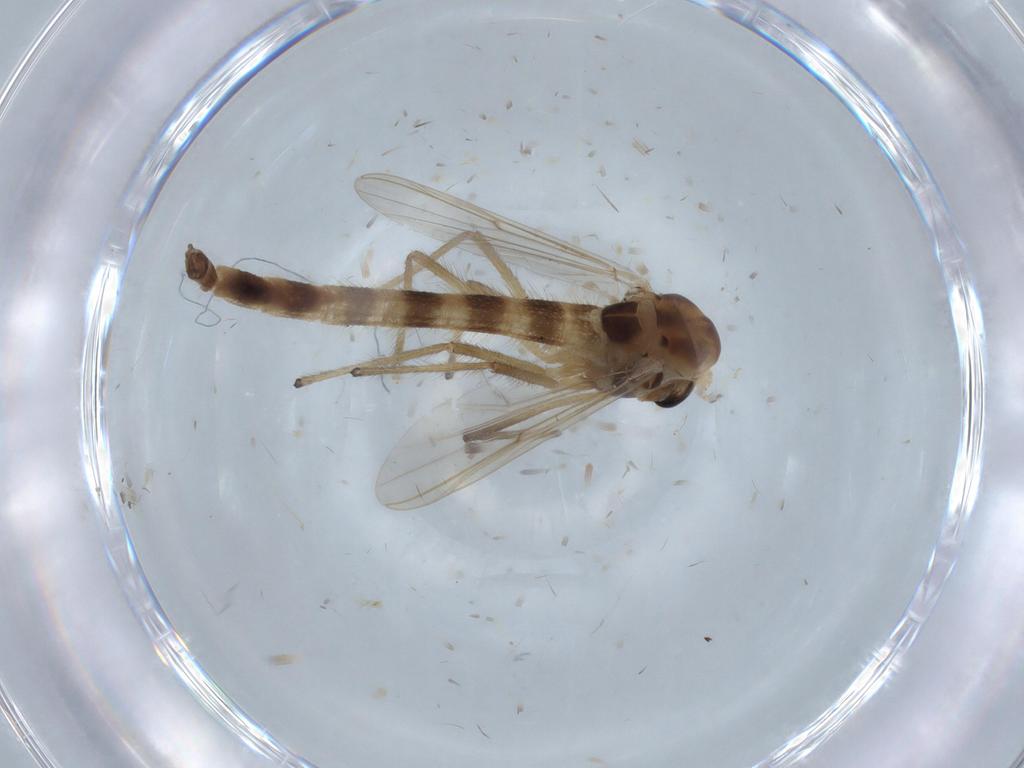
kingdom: Animalia
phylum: Arthropoda
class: Insecta
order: Diptera
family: Chironomidae
